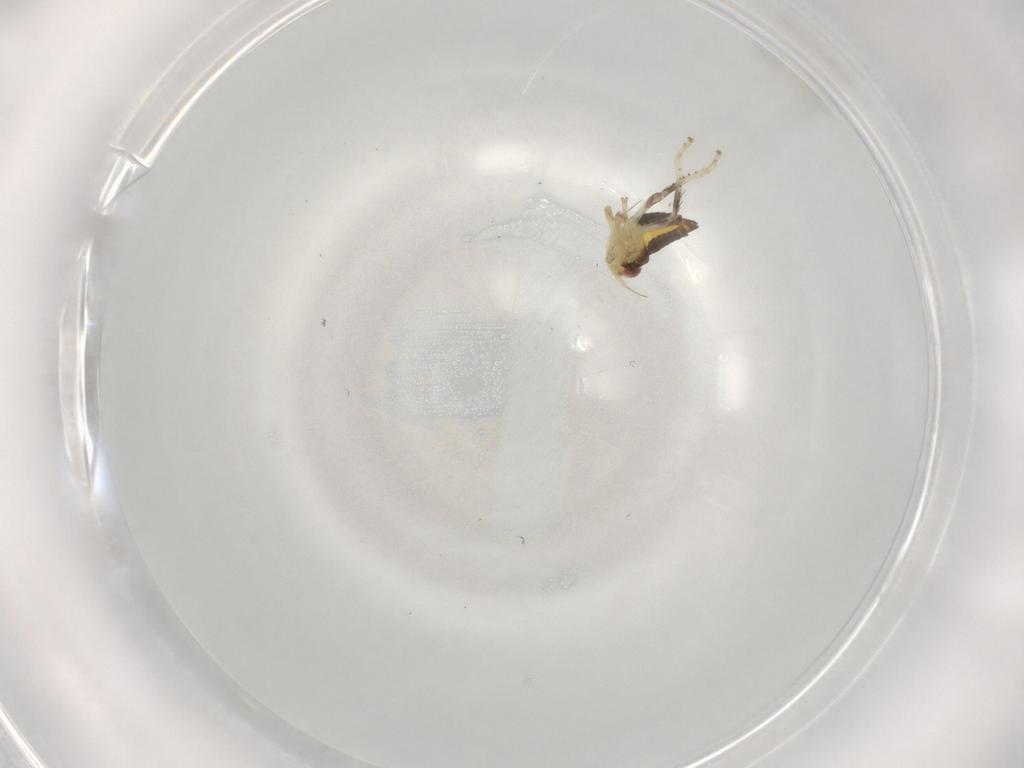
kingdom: Animalia
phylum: Arthropoda
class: Insecta
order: Hemiptera
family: Cicadellidae
